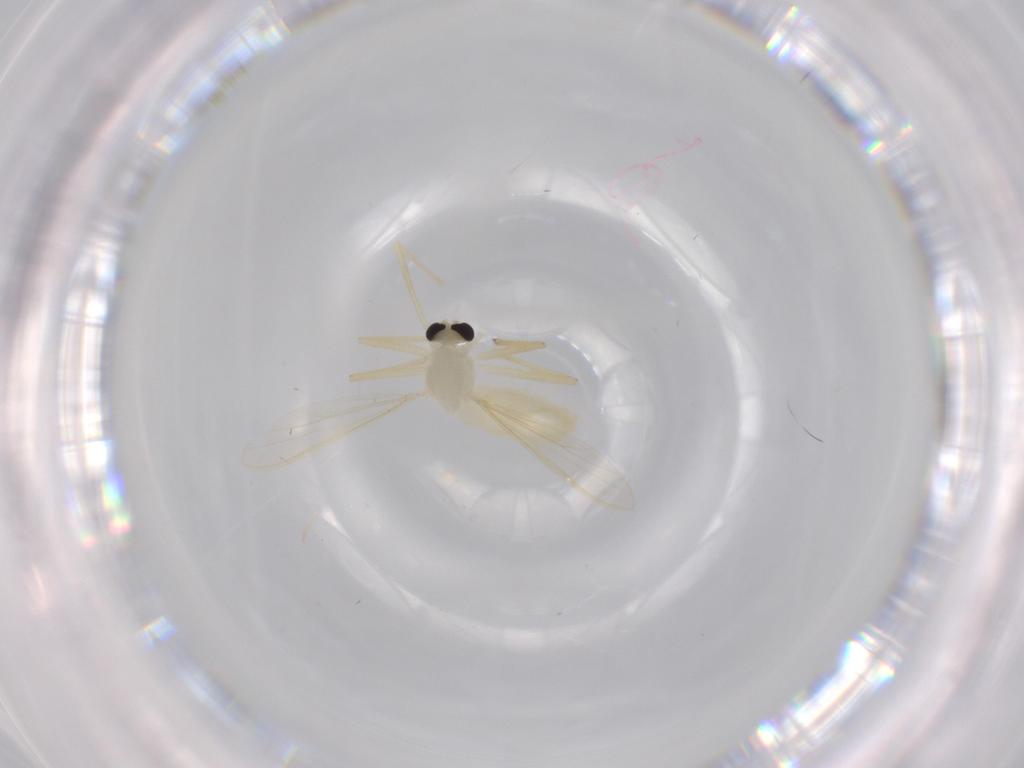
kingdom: Animalia
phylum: Arthropoda
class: Insecta
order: Diptera
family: Chironomidae
